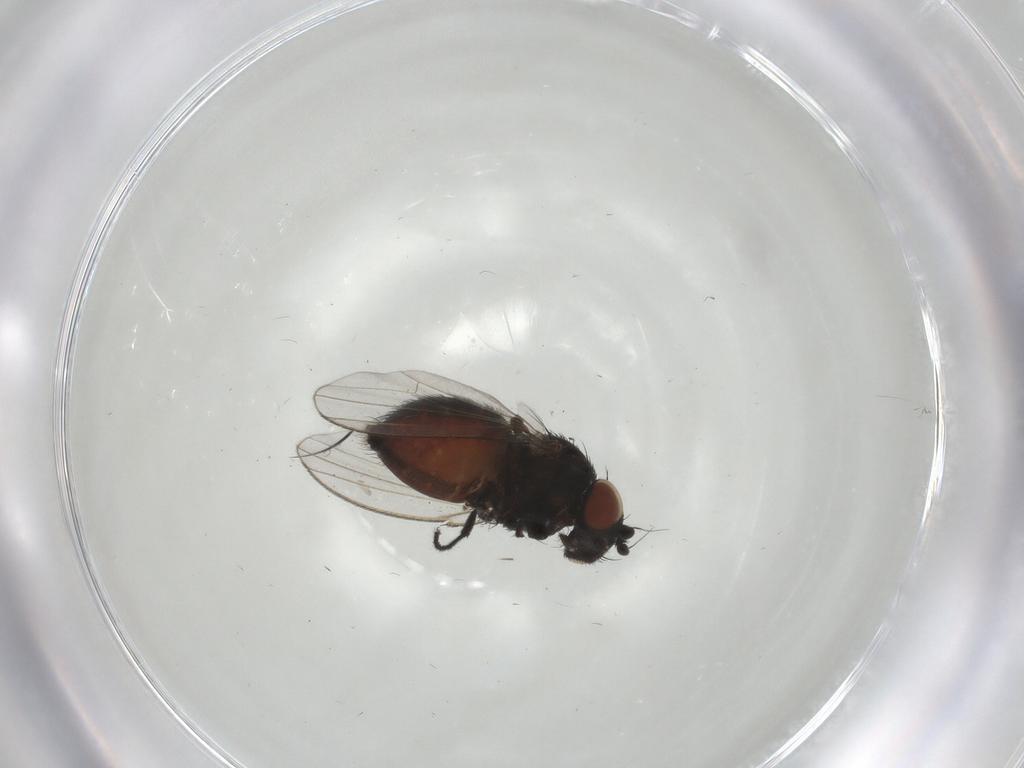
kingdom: Animalia
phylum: Arthropoda
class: Insecta
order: Diptera
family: Milichiidae
